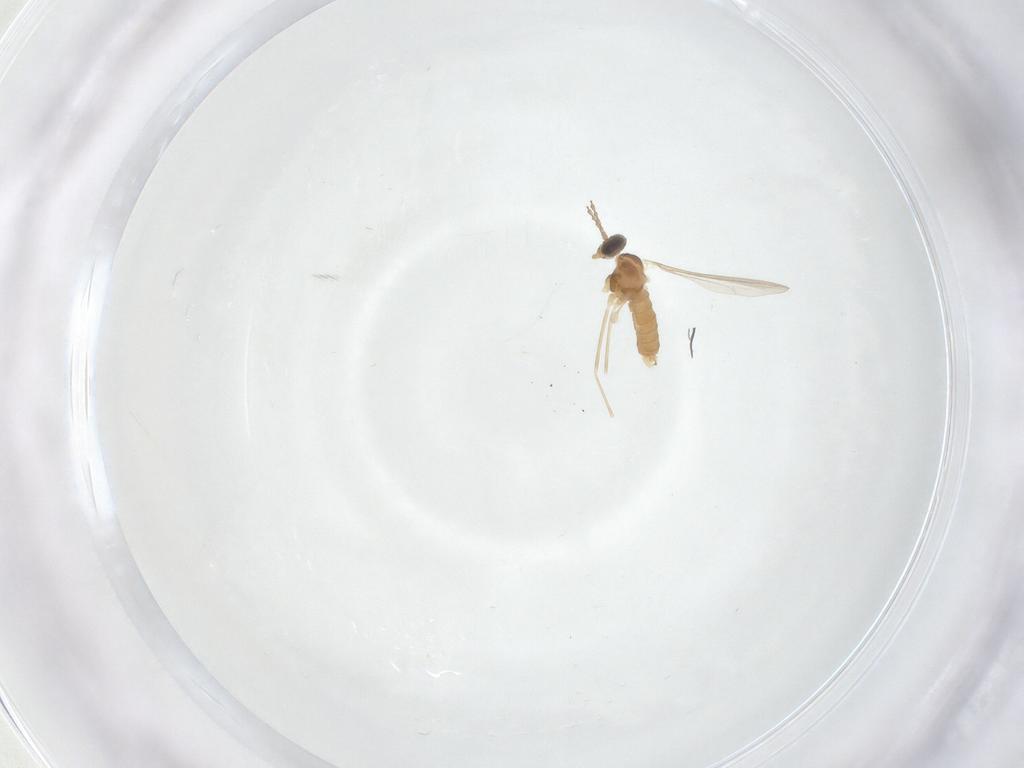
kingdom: Animalia
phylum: Arthropoda
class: Insecta
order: Diptera
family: Cecidomyiidae
